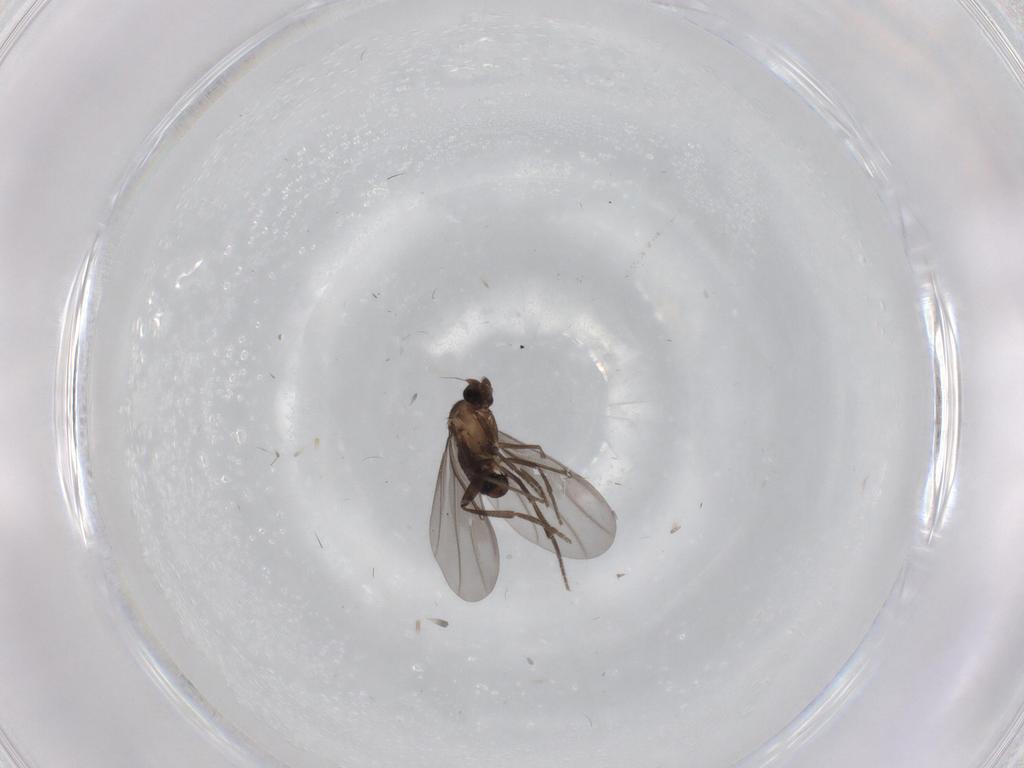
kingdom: Animalia
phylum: Arthropoda
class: Insecta
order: Diptera
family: Phoridae
